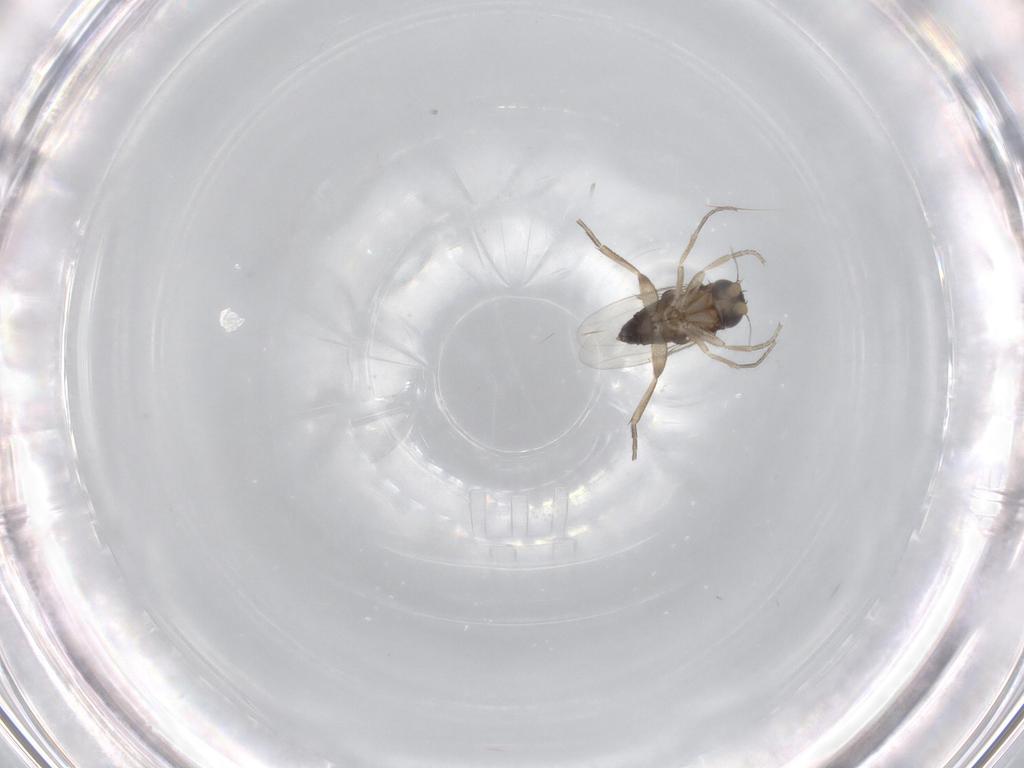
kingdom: Animalia
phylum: Arthropoda
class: Insecta
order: Diptera
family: Phoridae
